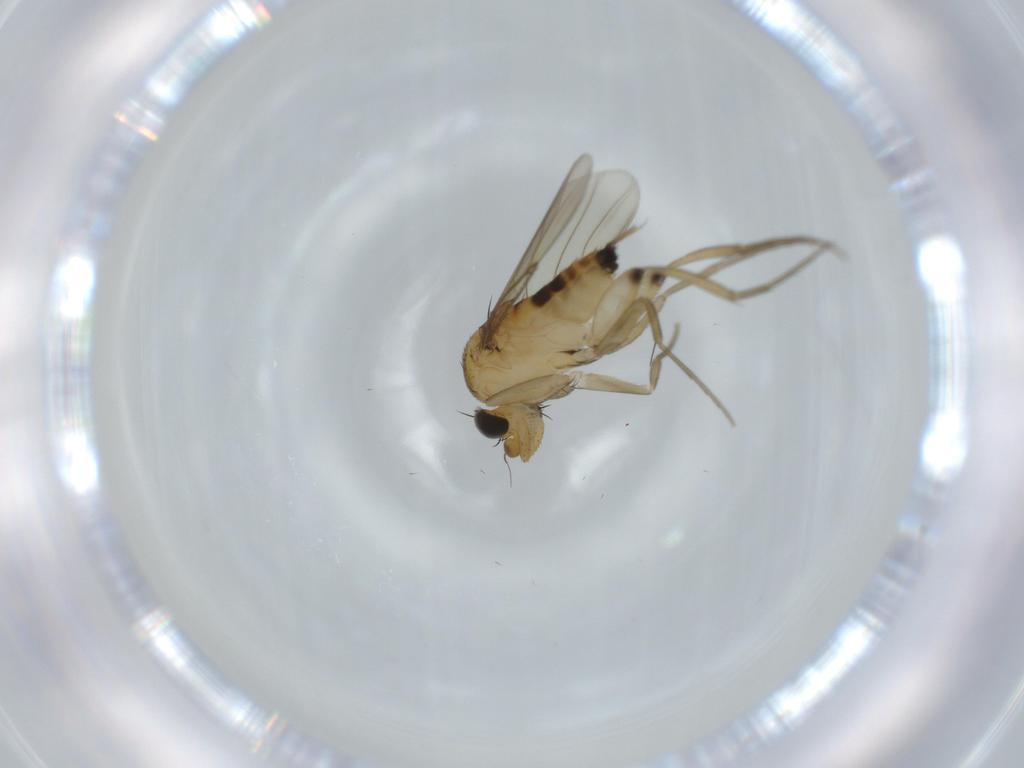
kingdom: Animalia
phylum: Arthropoda
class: Insecta
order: Diptera
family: Phoridae
